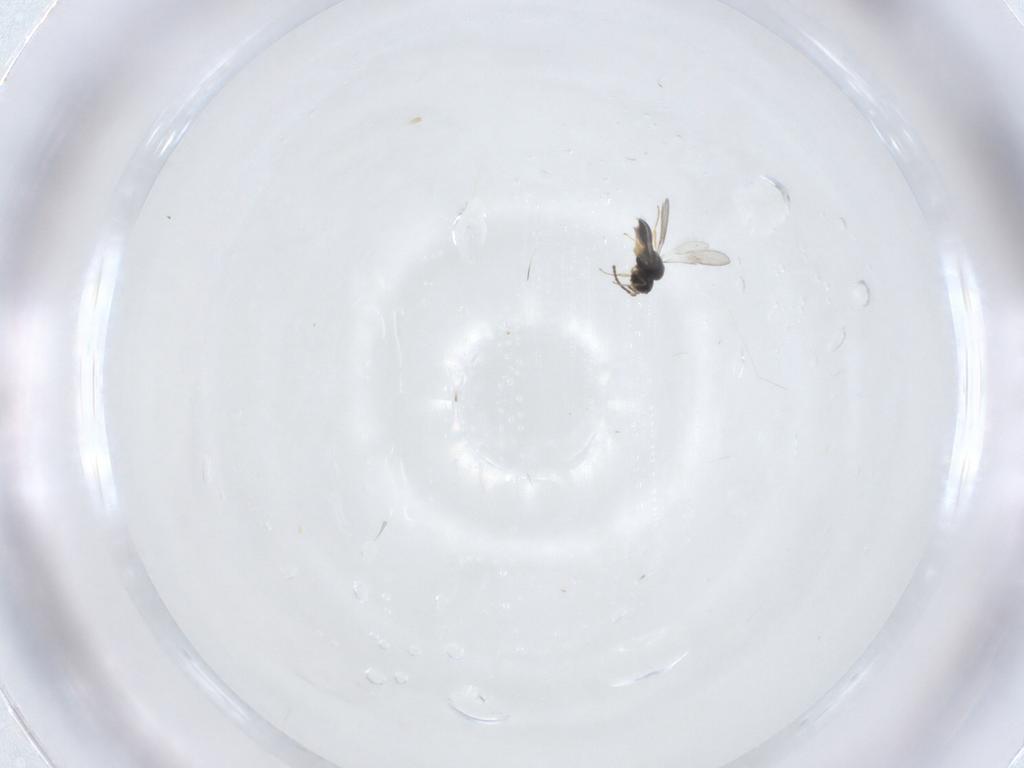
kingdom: Animalia
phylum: Arthropoda
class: Insecta
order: Hymenoptera
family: Scelionidae
